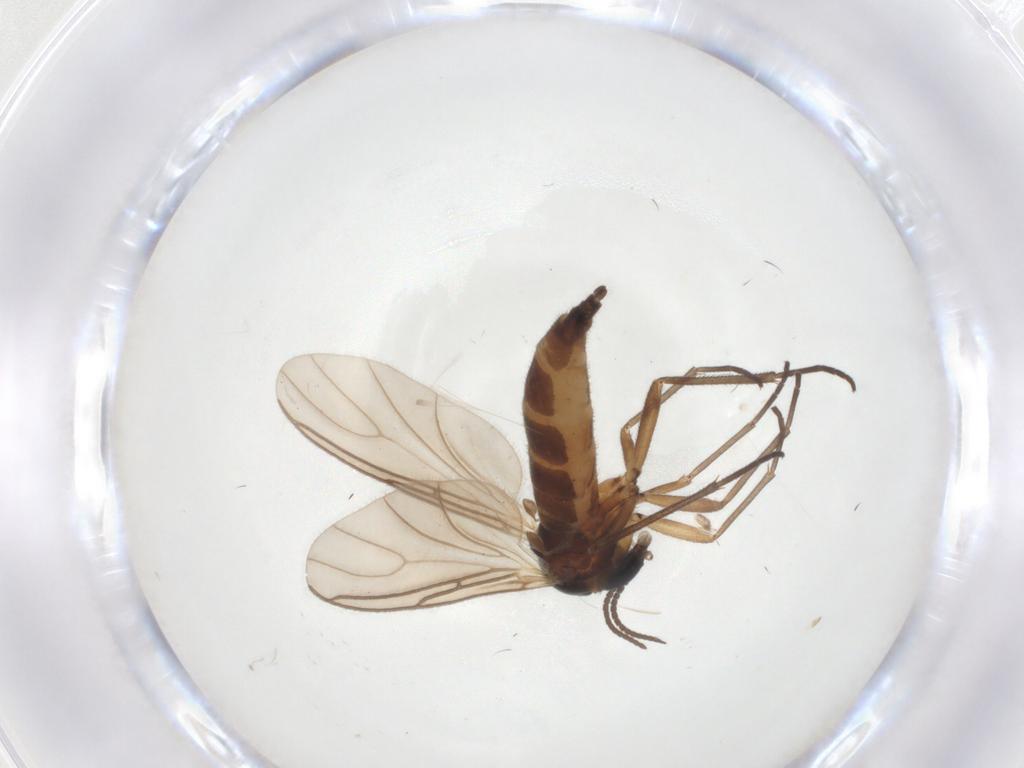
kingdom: Animalia
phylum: Arthropoda
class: Insecta
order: Diptera
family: Sciaridae
